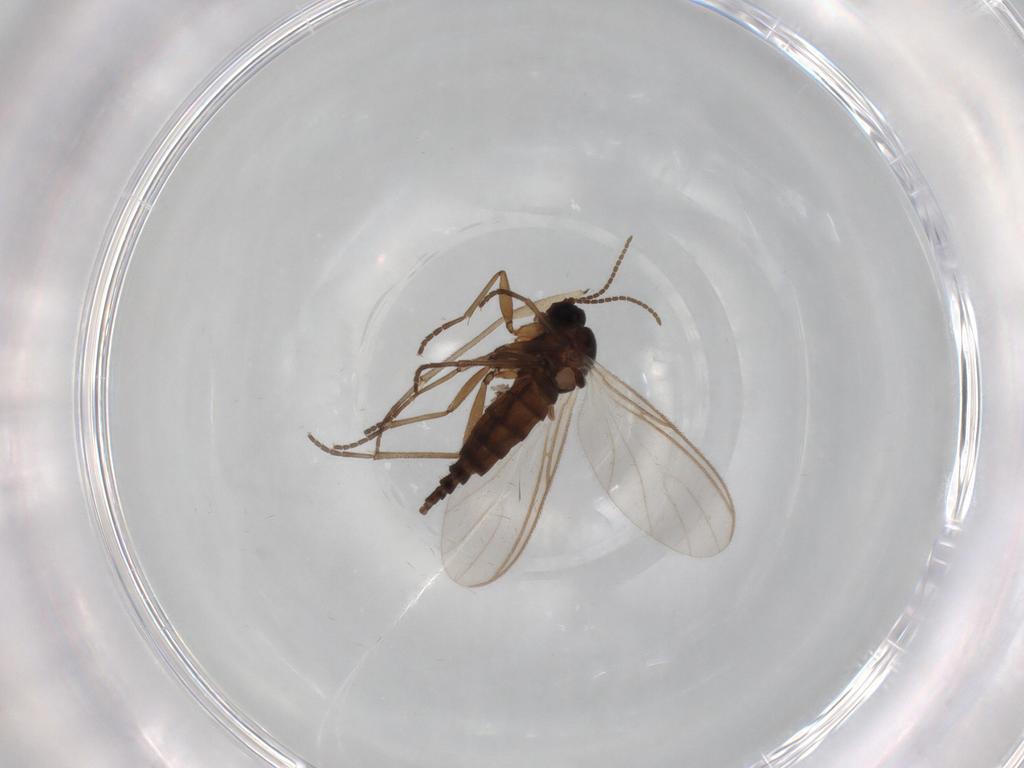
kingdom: Animalia
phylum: Arthropoda
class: Insecta
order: Diptera
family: Sciaridae
